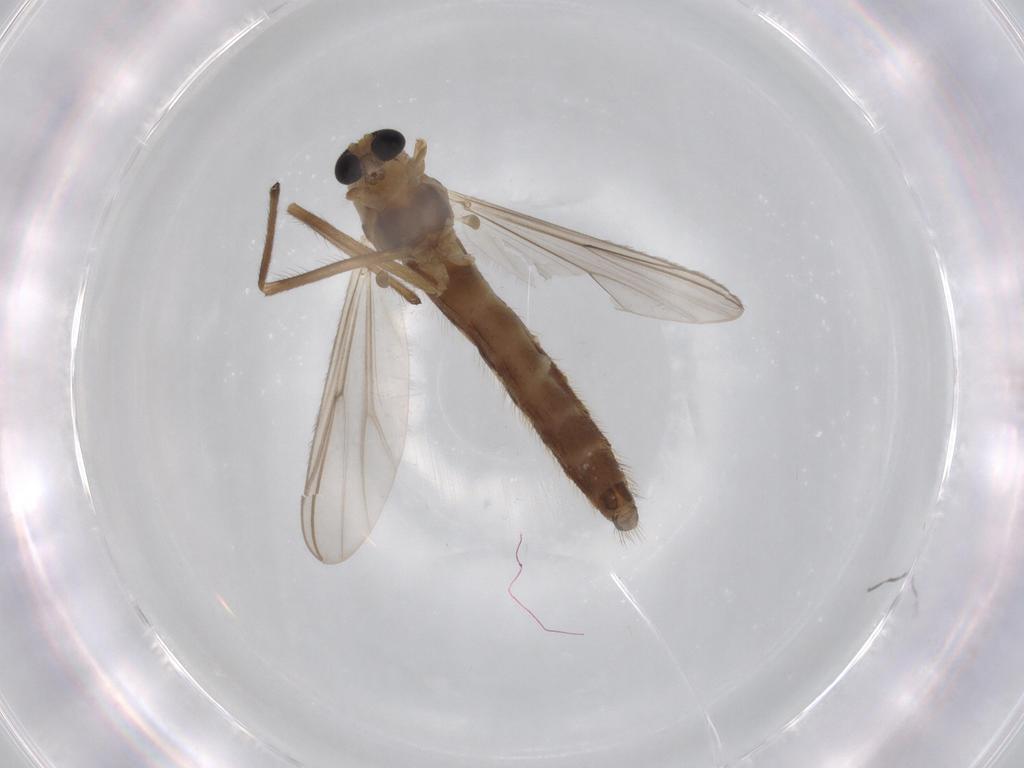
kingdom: Animalia
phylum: Arthropoda
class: Insecta
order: Diptera
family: Chironomidae
